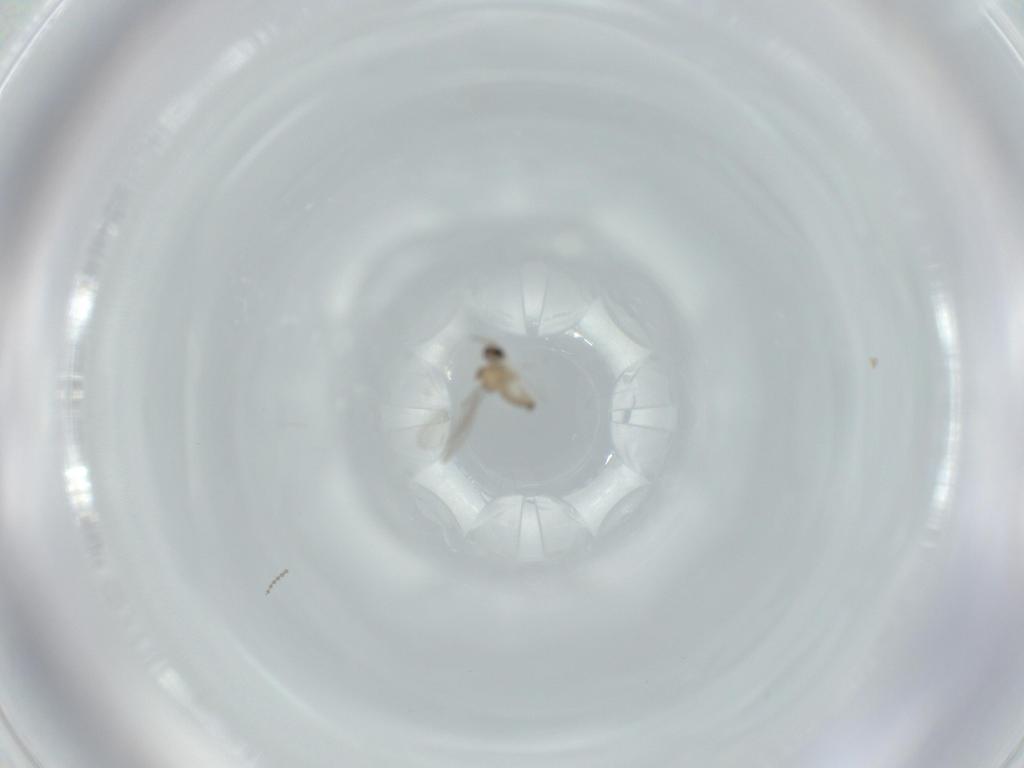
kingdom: Animalia
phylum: Arthropoda
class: Insecta
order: Diptera
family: Cecidomyiidae
